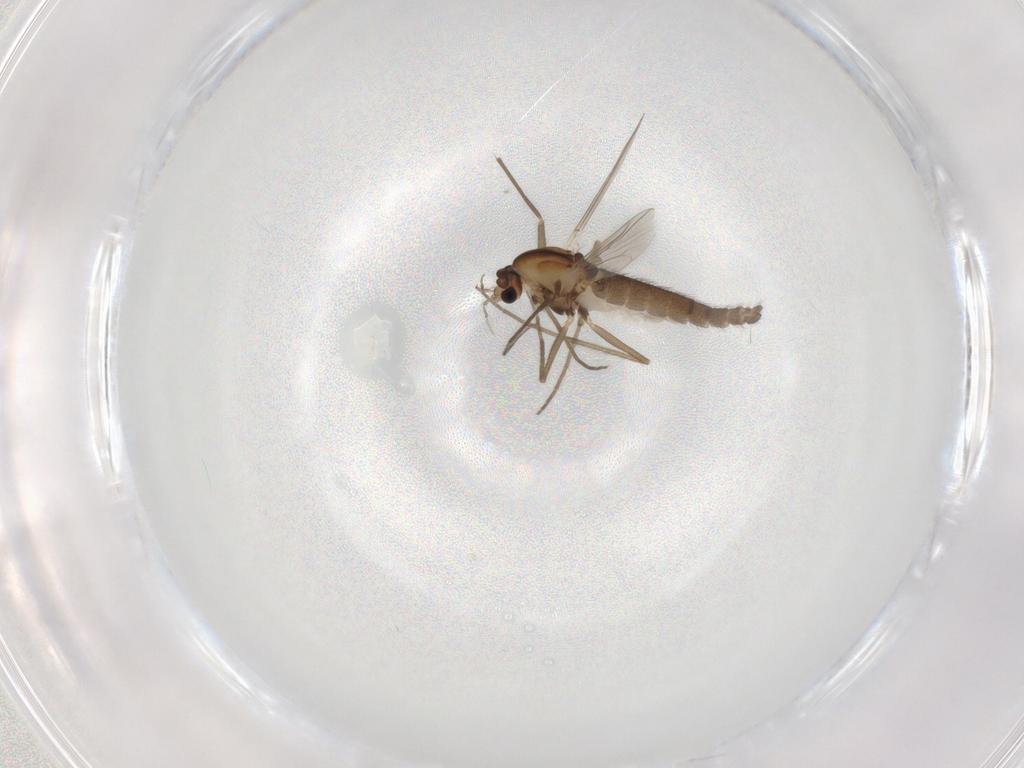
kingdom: Animalia
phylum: Arthropoda
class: Insecta
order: Diptera
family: Chironomidae
